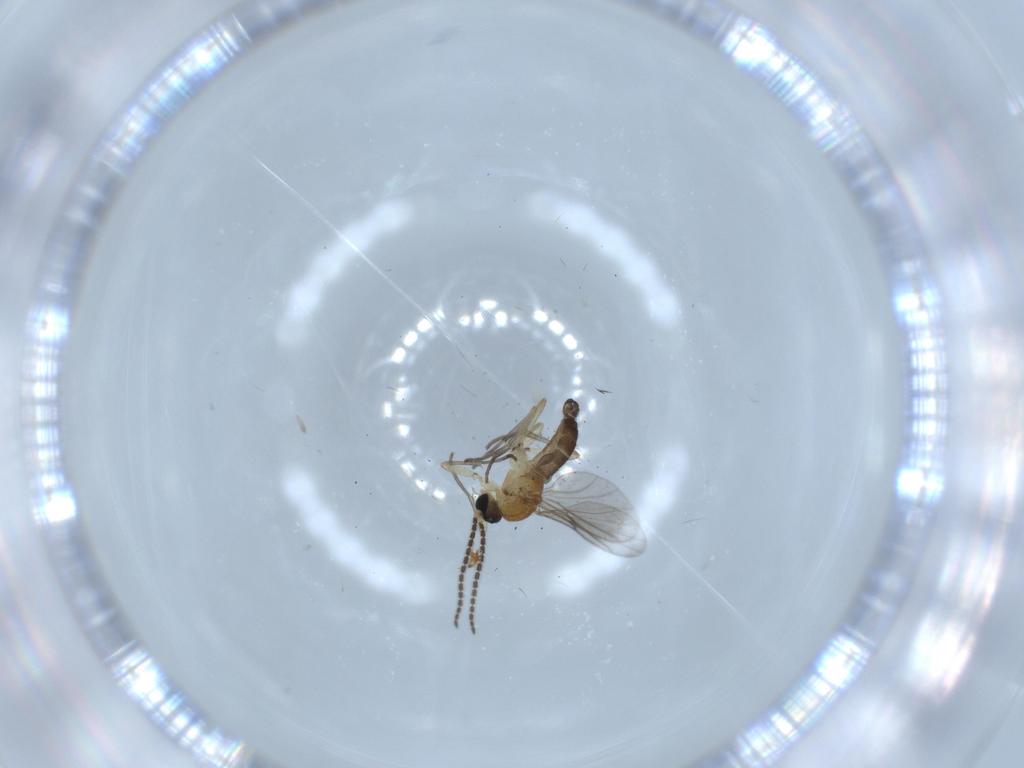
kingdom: Animalia
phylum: Arthropoda
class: Insecta
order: Diptera
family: Sciaridae
